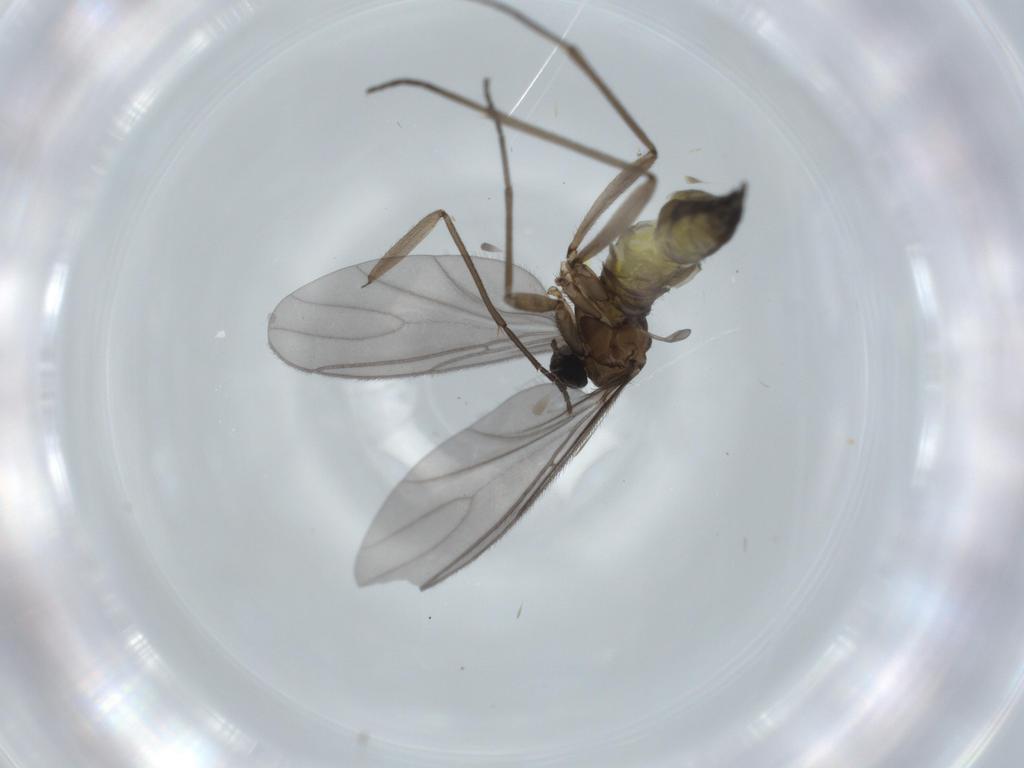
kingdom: Animalia
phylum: Arthropoda
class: Insecta
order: Diptera
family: Sciaridae
